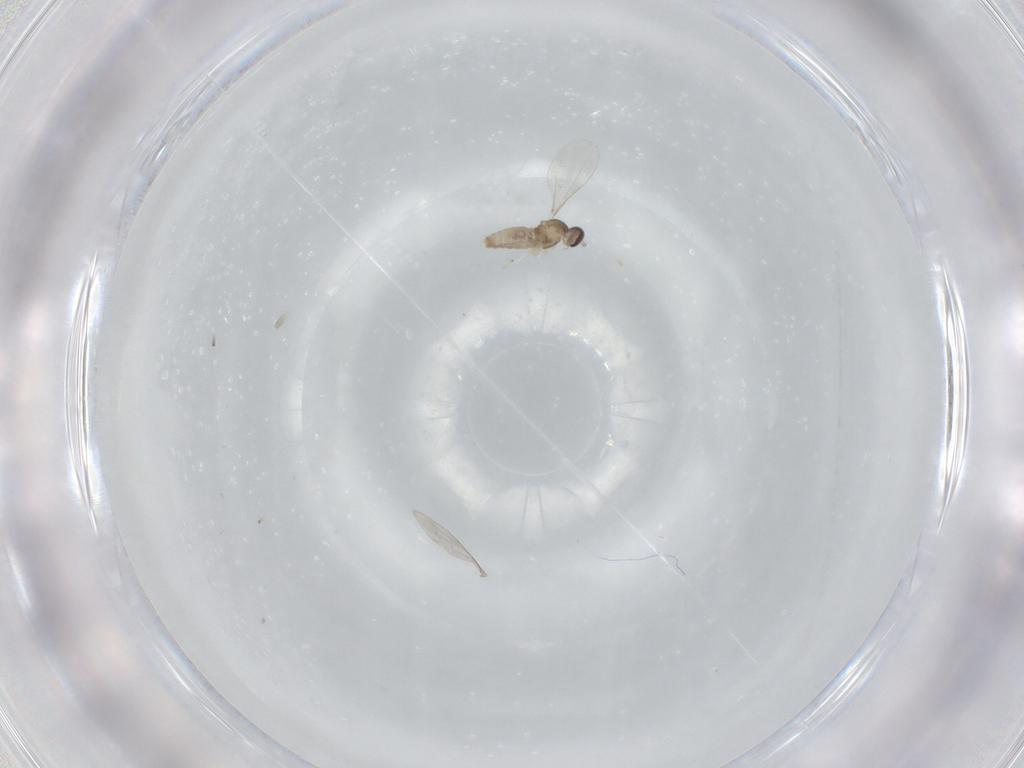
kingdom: Animalia
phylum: Arthropoda
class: Insecta
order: Diptera
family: Cecidomyiidae
